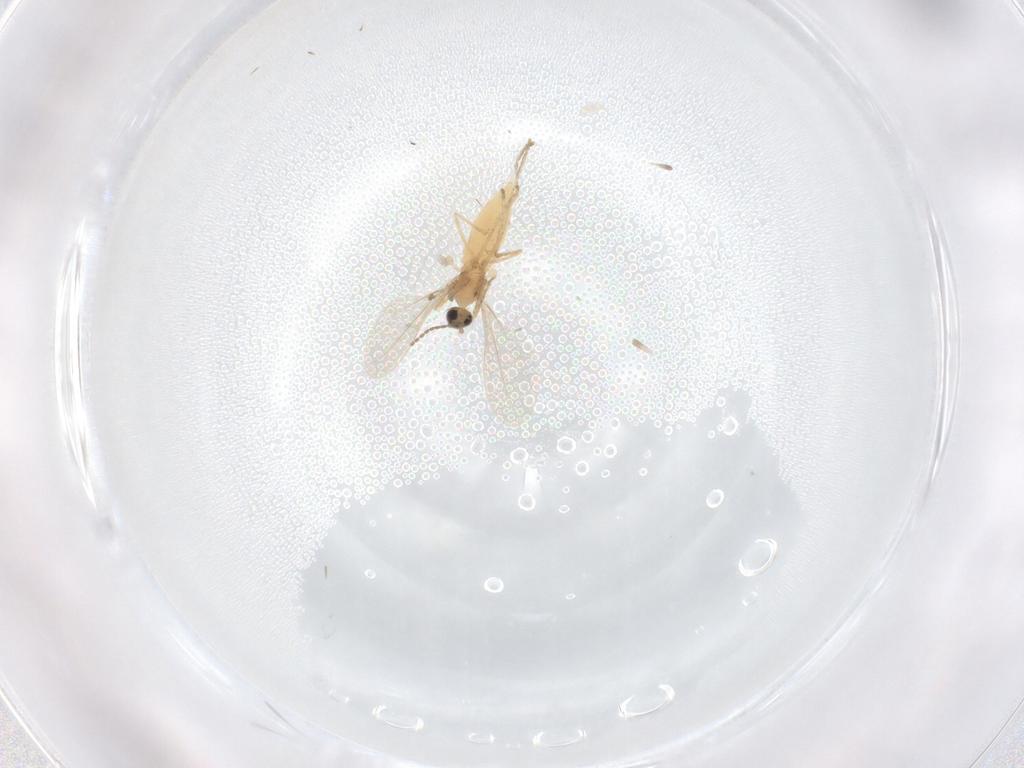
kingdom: Animalia
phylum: Arthropoda
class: Insecta
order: Diptera
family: Cecidomyiidae
